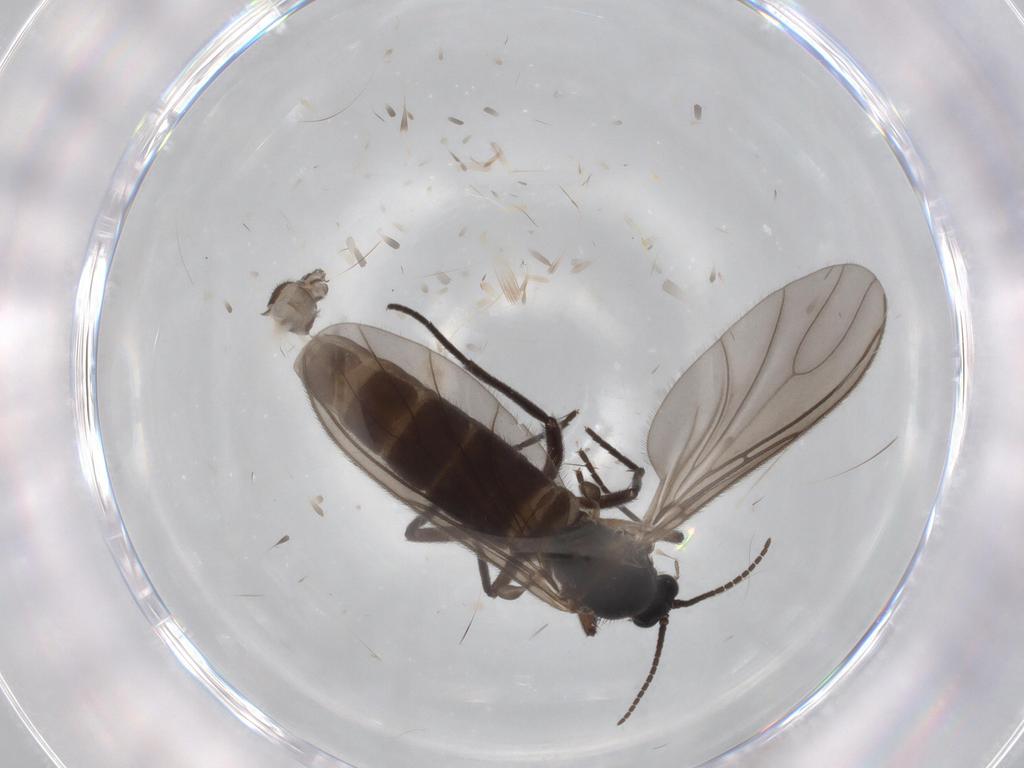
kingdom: Animalia
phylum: Arthropoda
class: Insecta
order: Diptera
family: Sciaridae
